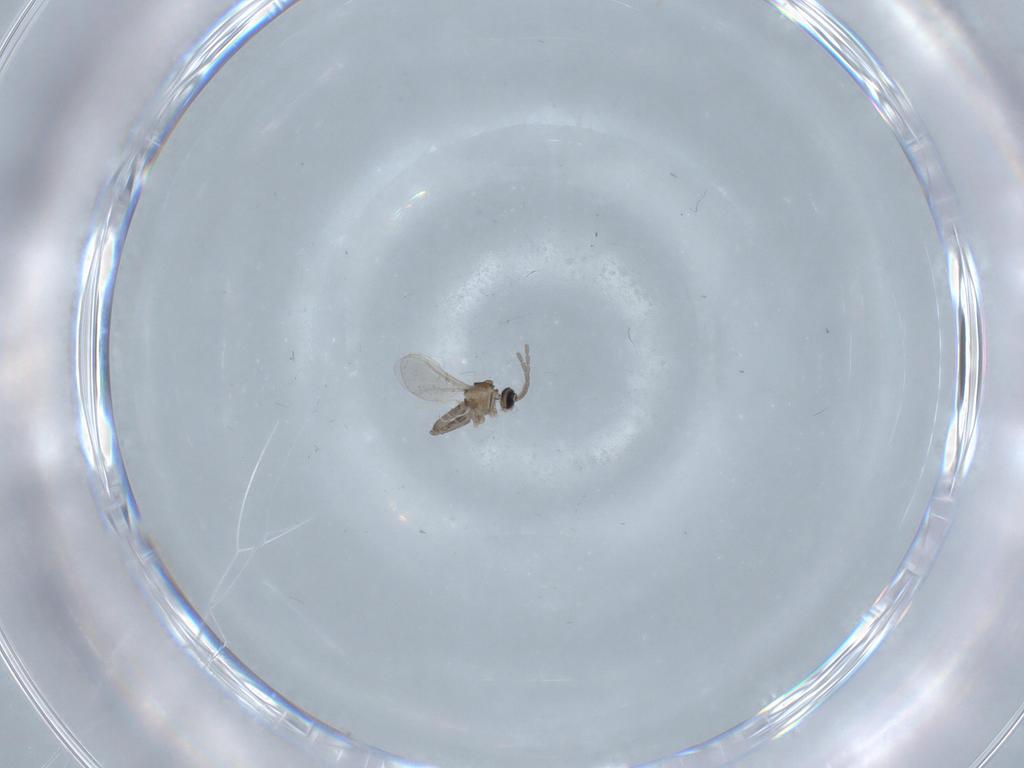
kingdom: Animalia
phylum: Arthropoda
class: Insecta
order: Diptera
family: Cecidomyiidae
